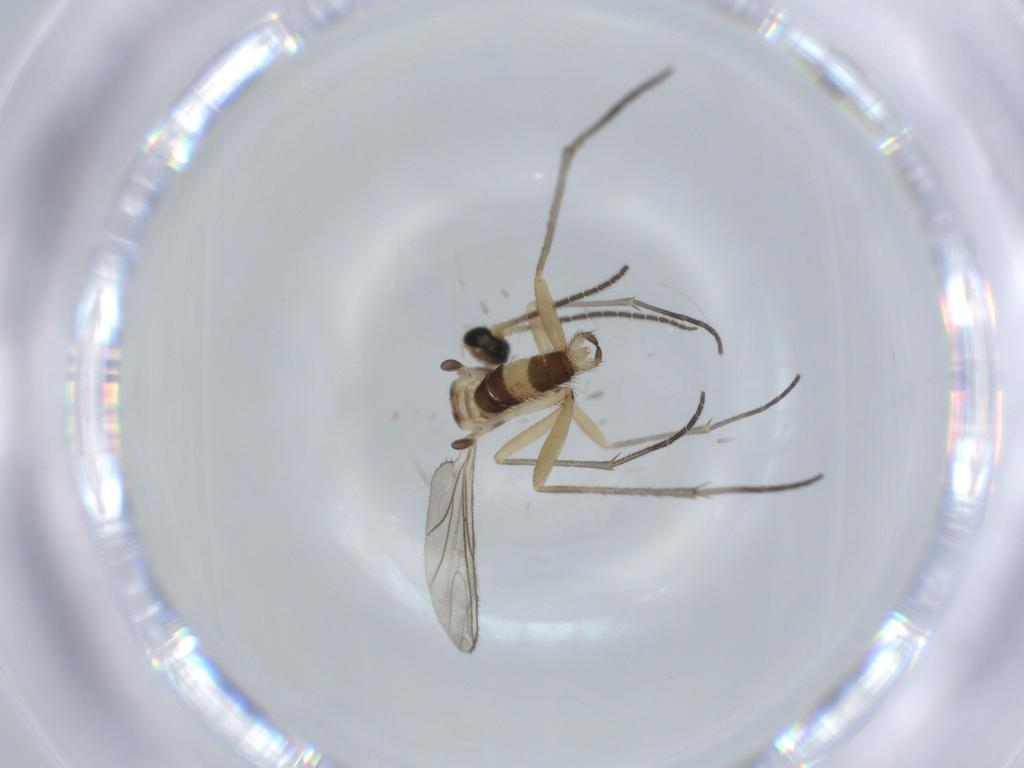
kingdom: Animalia
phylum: Arthropoda
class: Insecta
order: Diptera
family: Sciaridae
